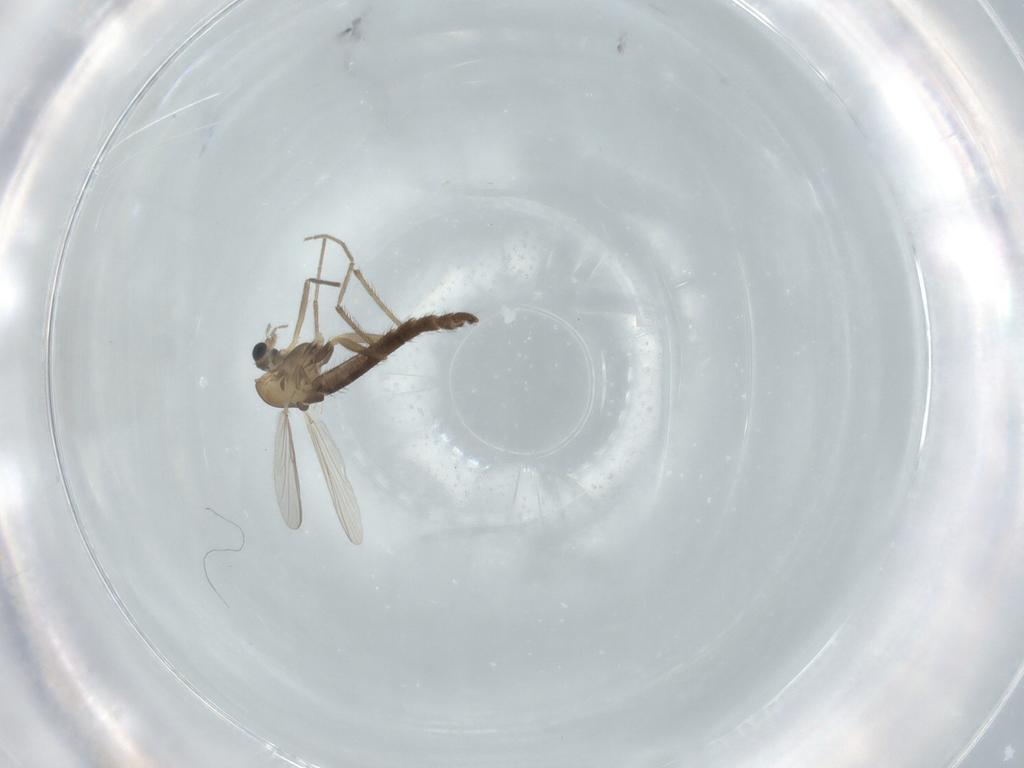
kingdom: Animalia
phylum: Arthropoda
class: Insecta
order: Diptera
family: Chironomidae
